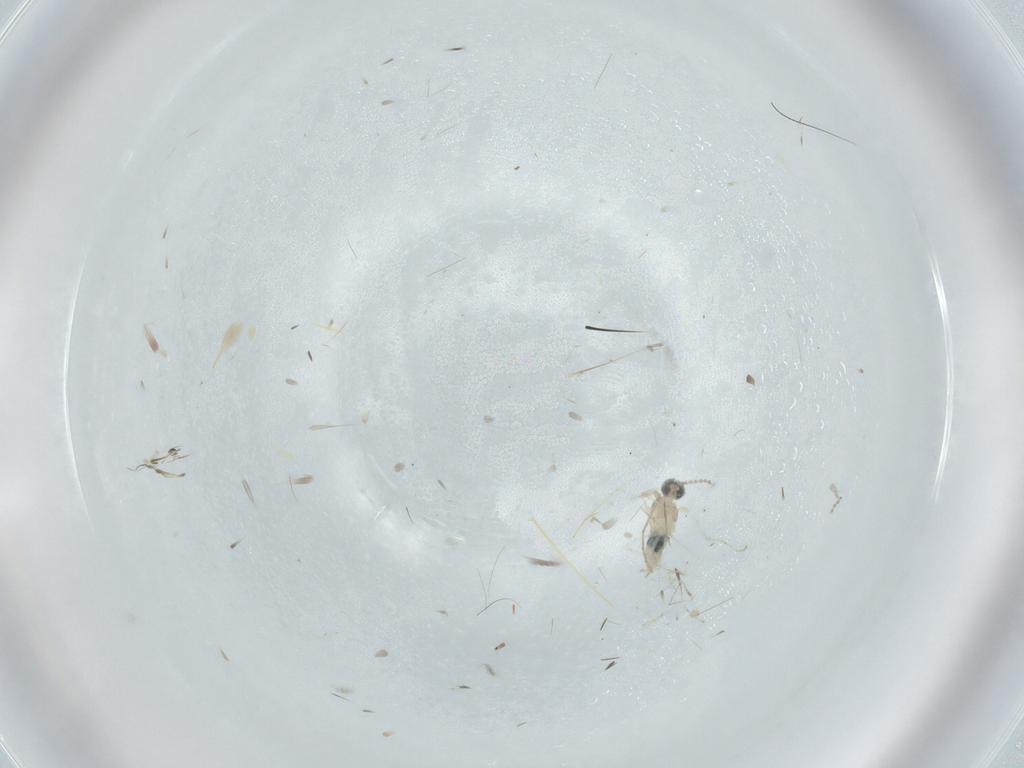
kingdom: Animalia
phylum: Arthropoda
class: Insecta
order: Diptera
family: Cecidomyiidae
